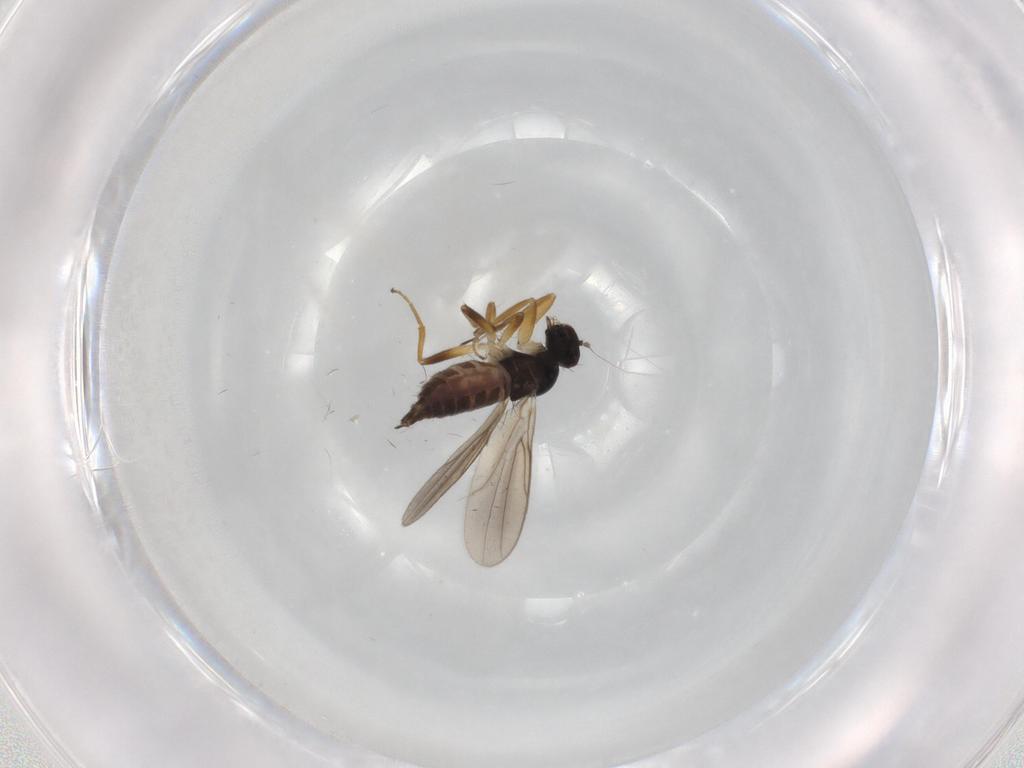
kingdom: Animalia
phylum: Arthropoda
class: Insecta
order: Diptera
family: Hybotidae
